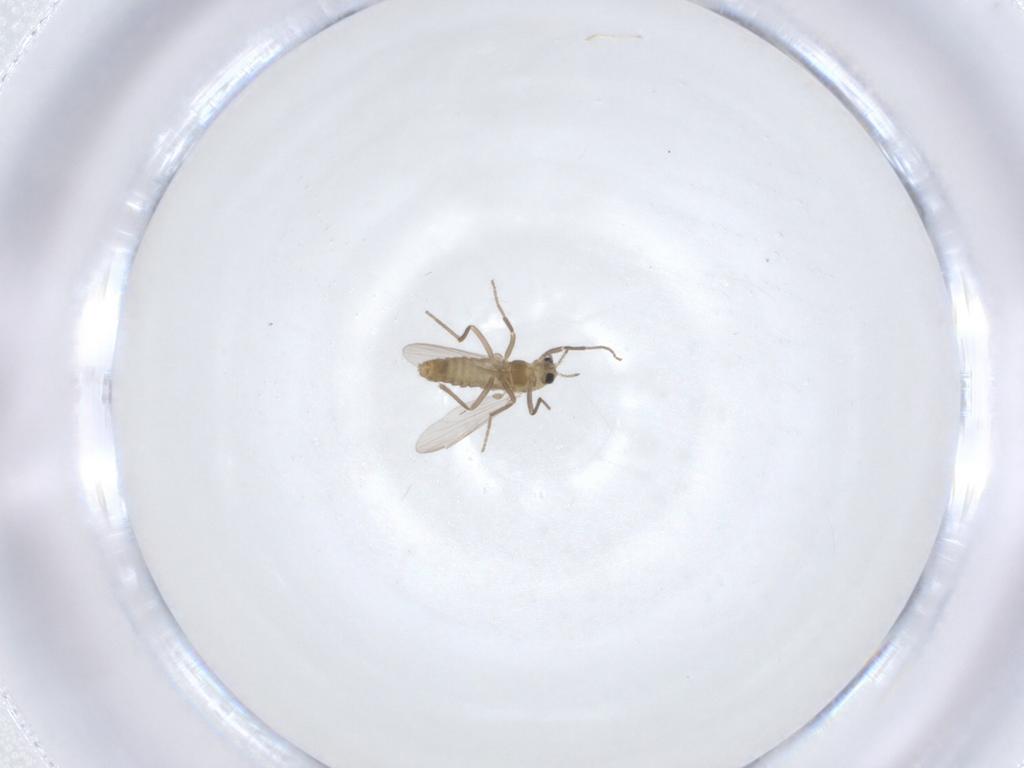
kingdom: Animalia
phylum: Arthropoda
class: Insecta
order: Diptera
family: Chironomidae
